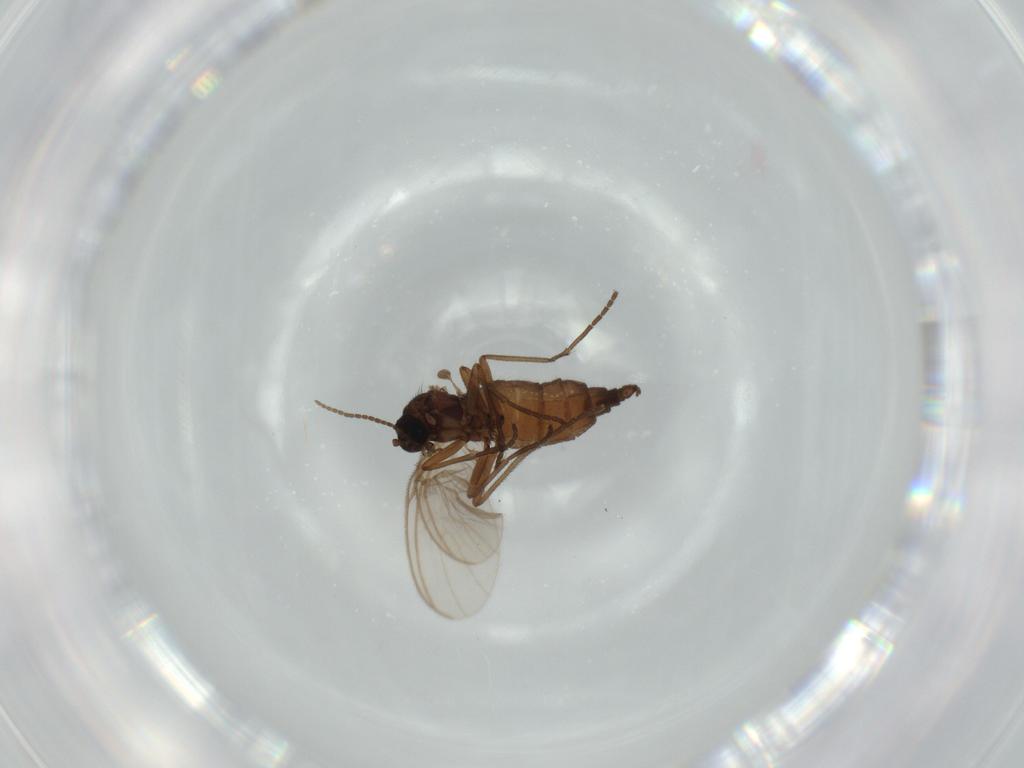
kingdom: Animalia
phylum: Arthropoda
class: Insecta
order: Diptera
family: Sciaridae
